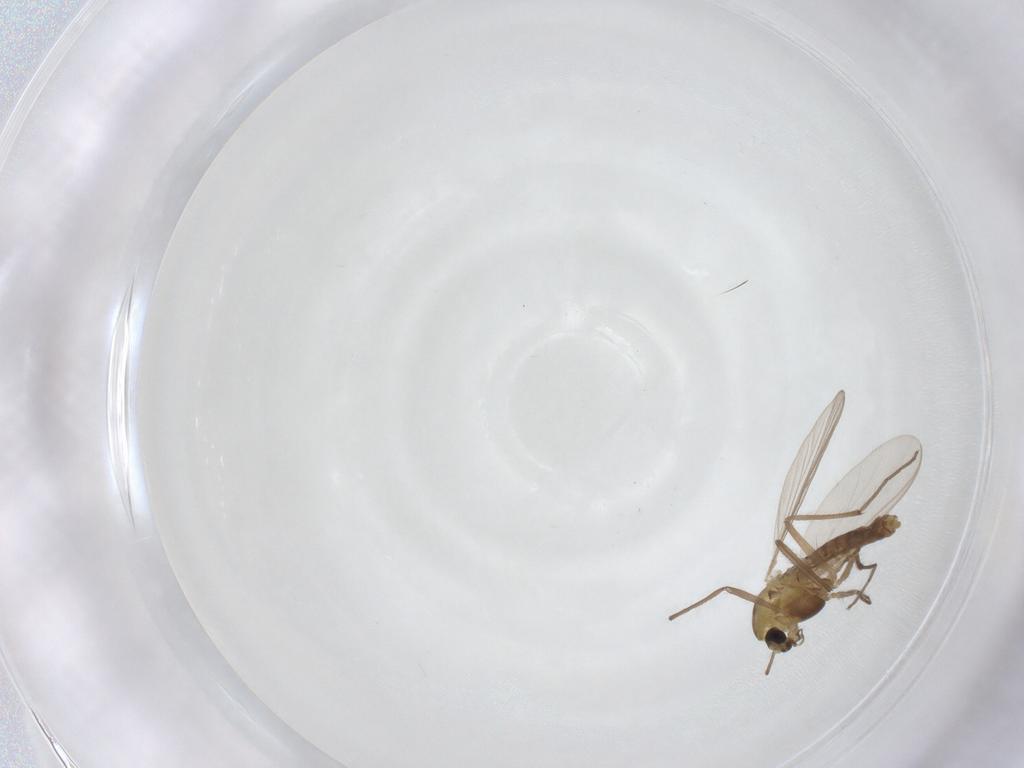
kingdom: Animalia
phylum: Arthropoda
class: Insecta
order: Diptera
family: Chironomidae
